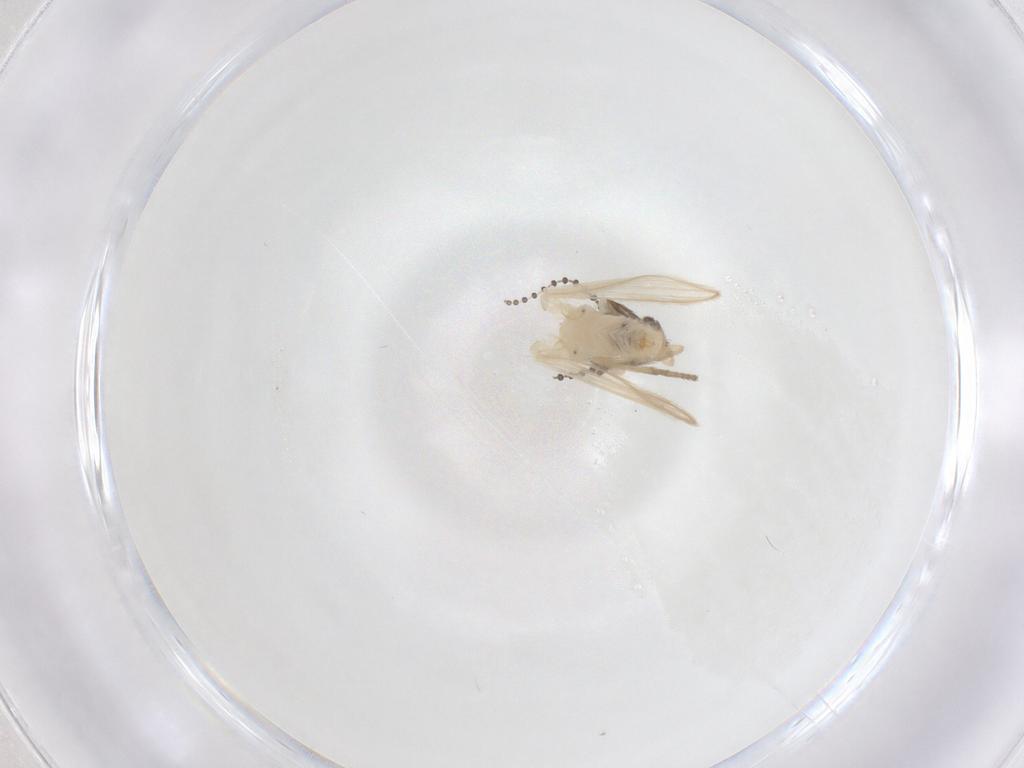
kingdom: Animalia
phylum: Arthropoda
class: Insecta
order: Diptera
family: Psychodidae
